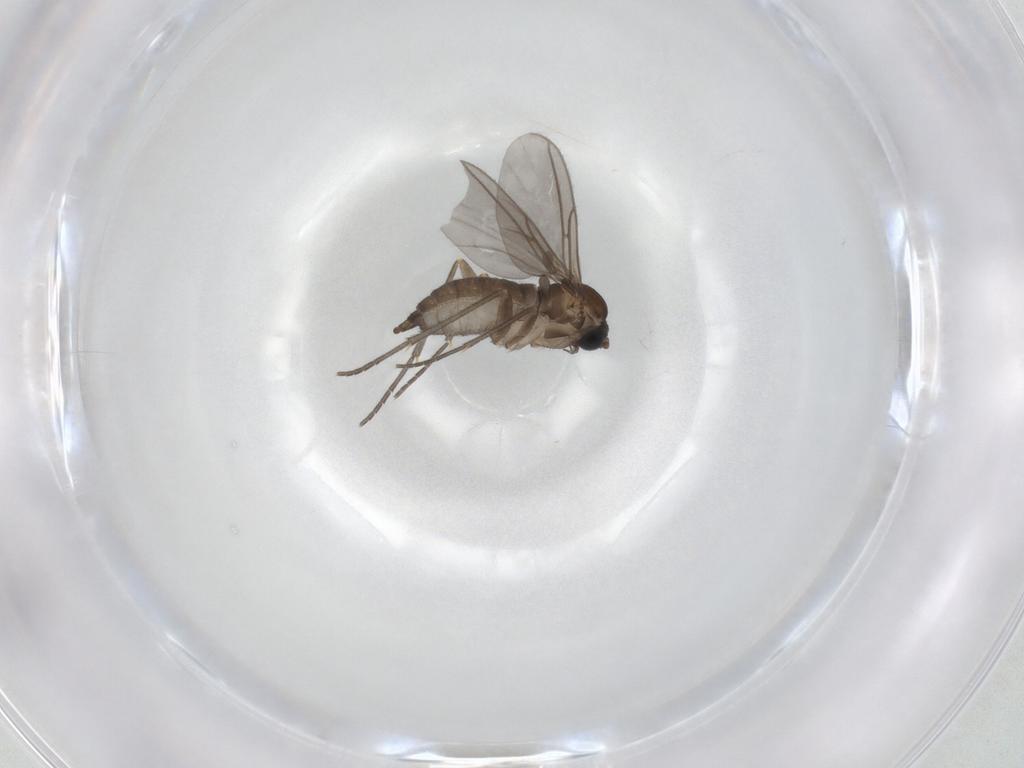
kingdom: Animalia
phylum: Arthropoda
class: Insecta
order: Diptera
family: Sciaridae
